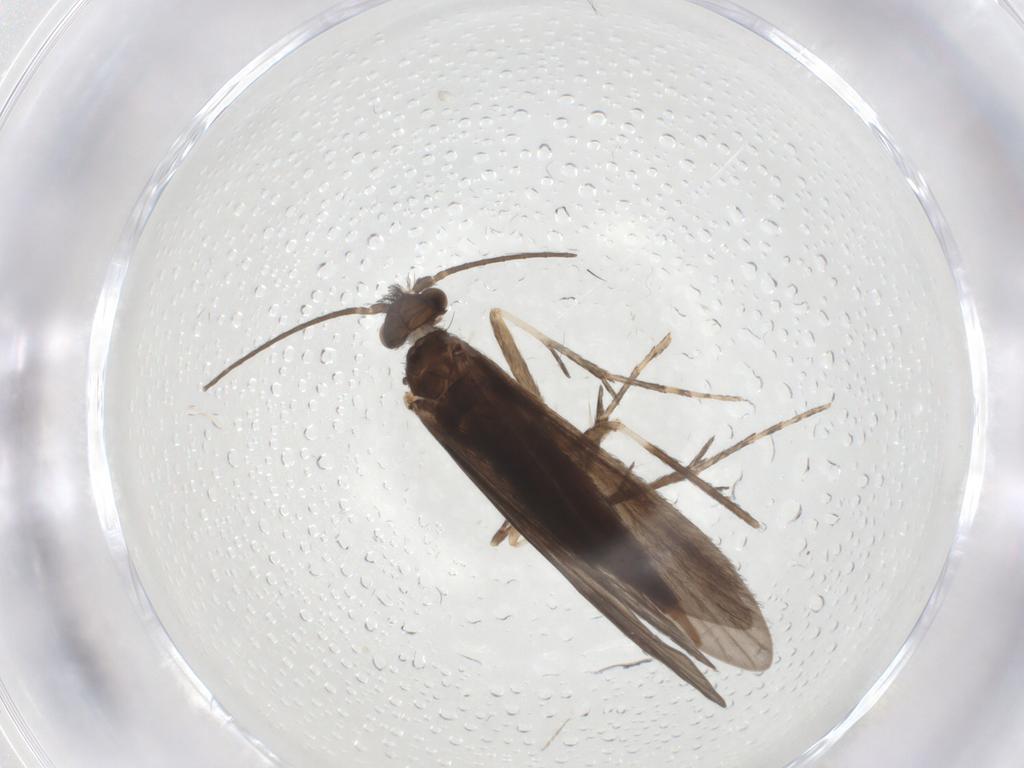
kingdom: Animalia
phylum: Arthropoda
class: Insecta
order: Trichoptera
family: Xiphocentronidae
